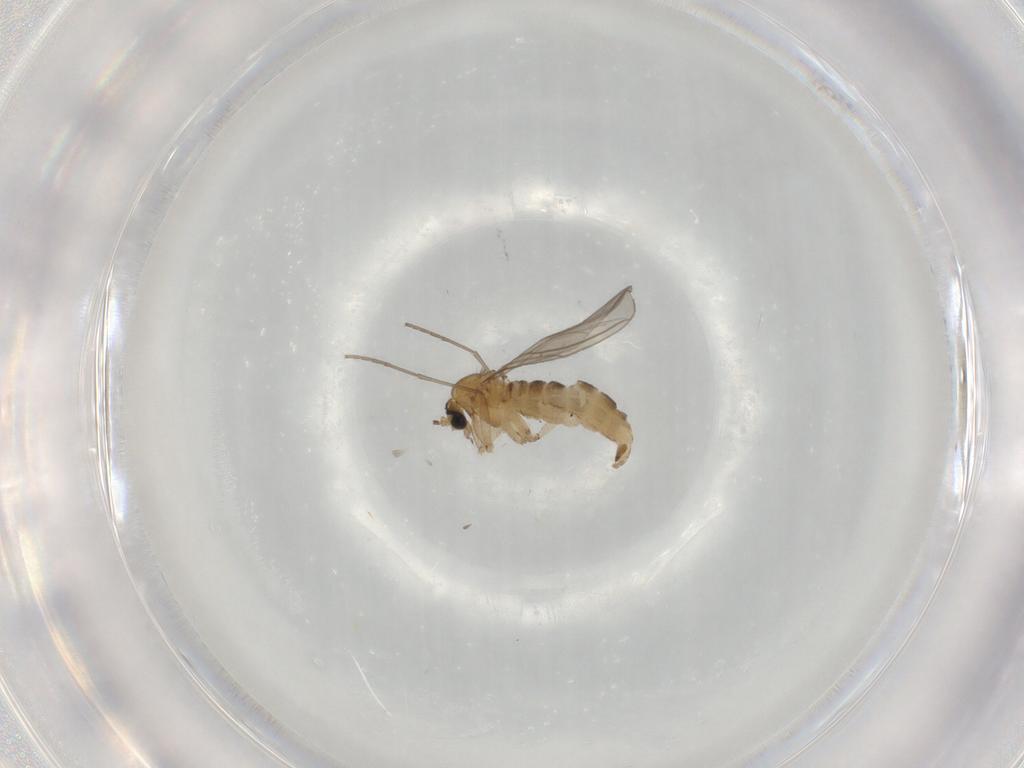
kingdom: Animalia
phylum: Arthropoda
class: Insecta
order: Diptera
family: Sciaridae
